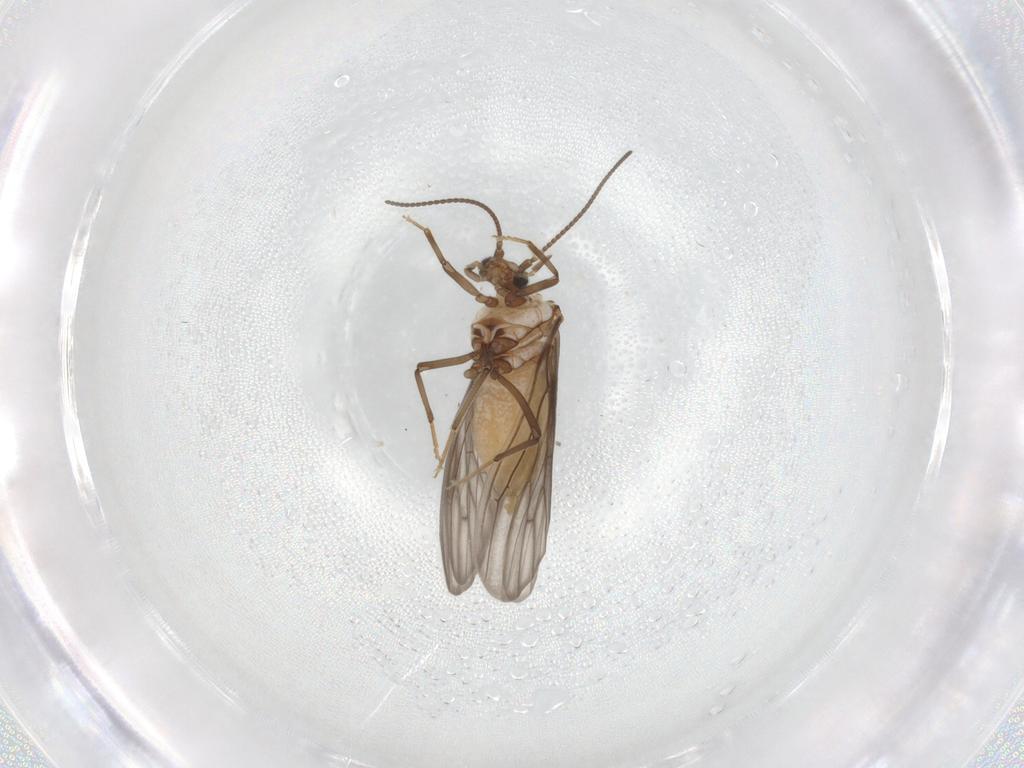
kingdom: Animalia
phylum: Arthropoda
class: Insecta
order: Neuroptera
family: Coniopterygidae
